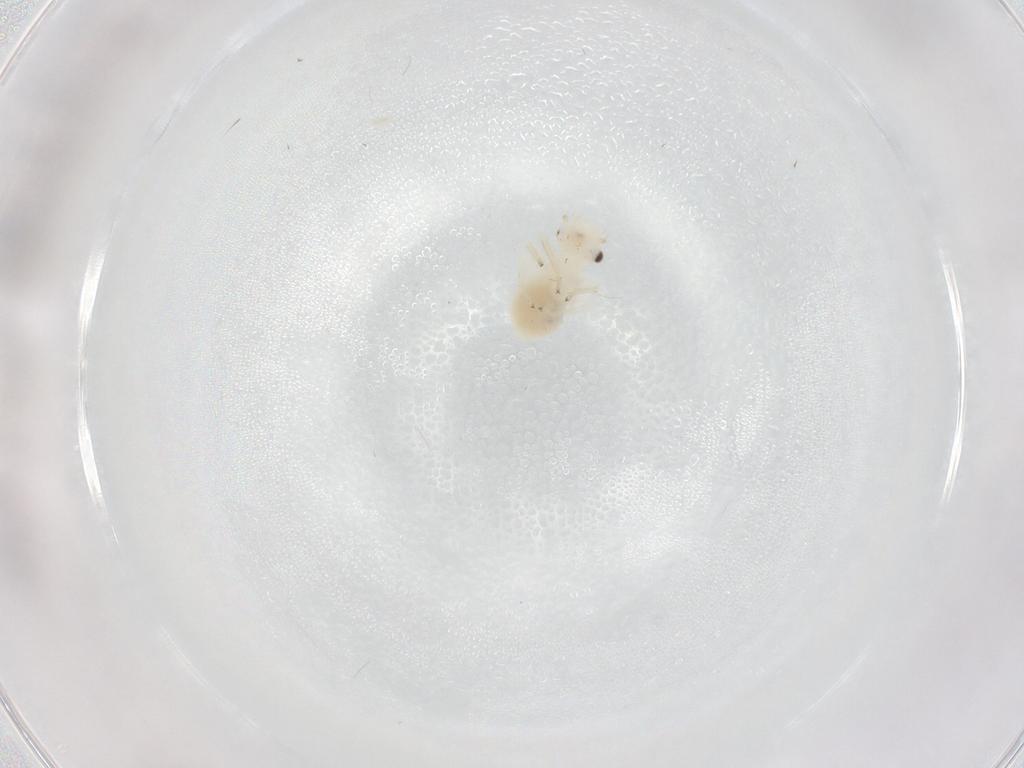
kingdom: Animalia
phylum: Arthropoda
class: Insecta
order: Psocodea
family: Caeciliusidae
